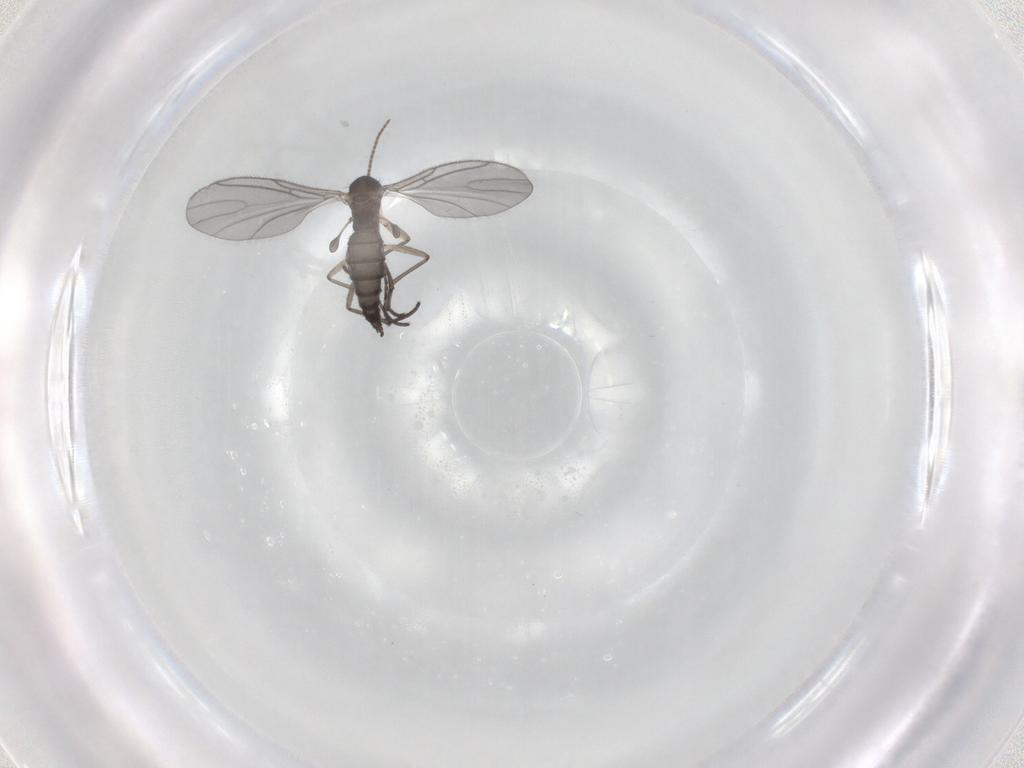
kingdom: Animalia
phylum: Arthropoda
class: Insecta
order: Diptera
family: Sciaridae
